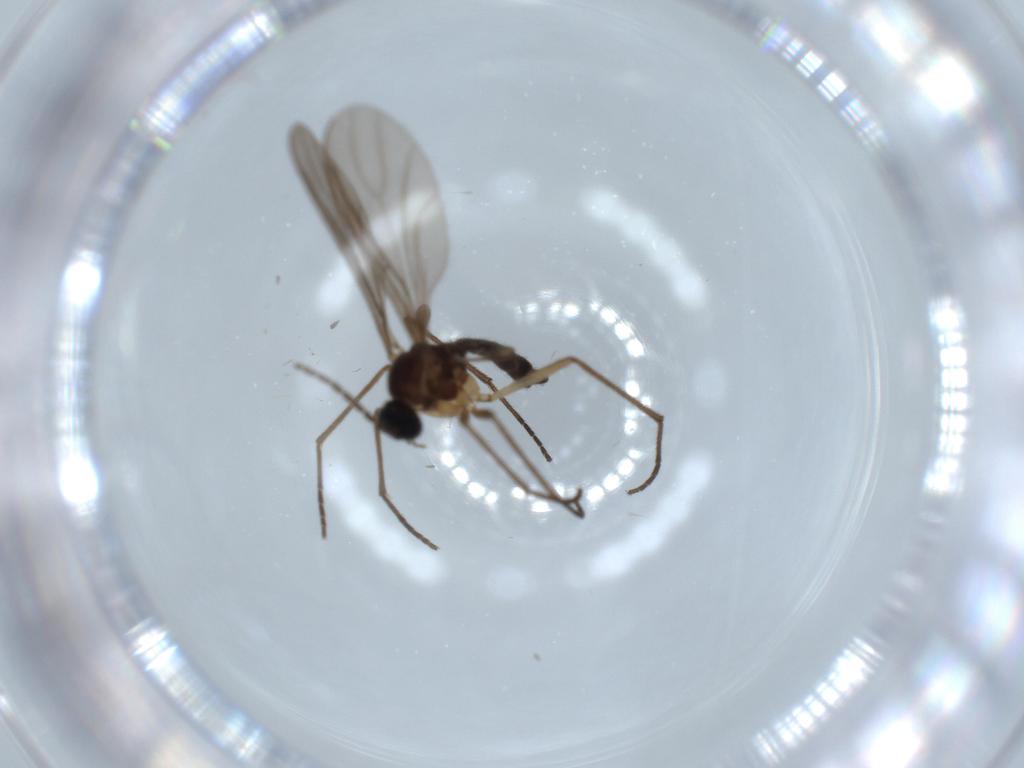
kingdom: Animalia
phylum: Arthropoda
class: Insecta
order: Diptera
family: Sciaridae
